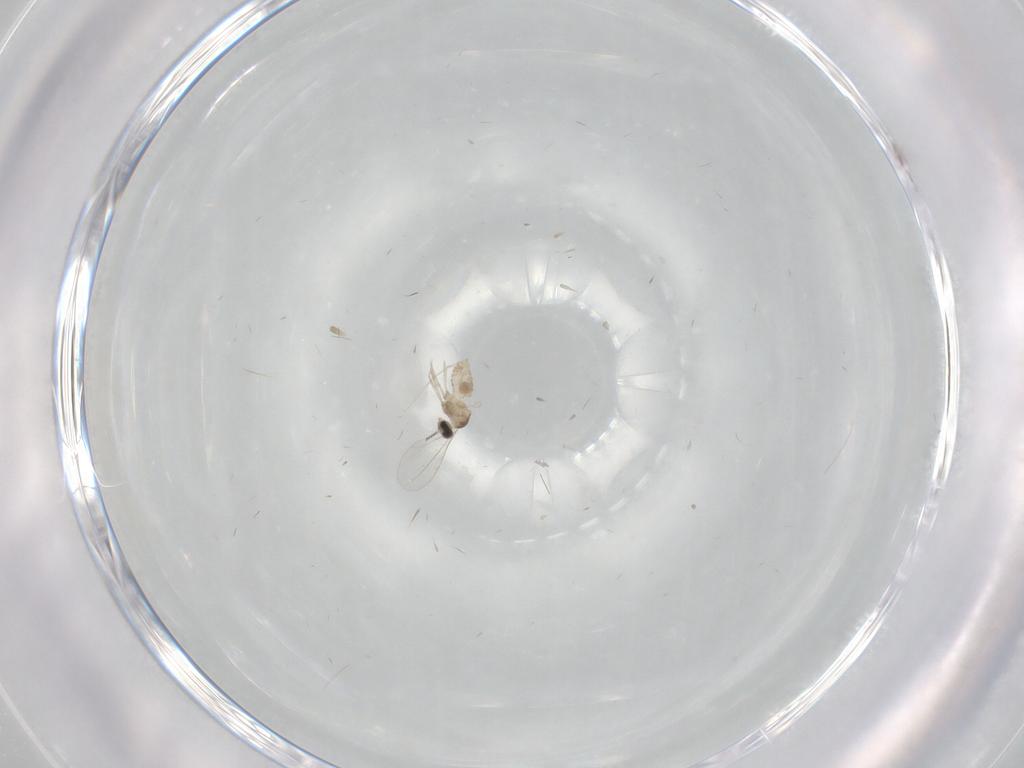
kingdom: Animalia
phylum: Arthropoda
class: Insecta
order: Diptera
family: Cecidomyiidae
